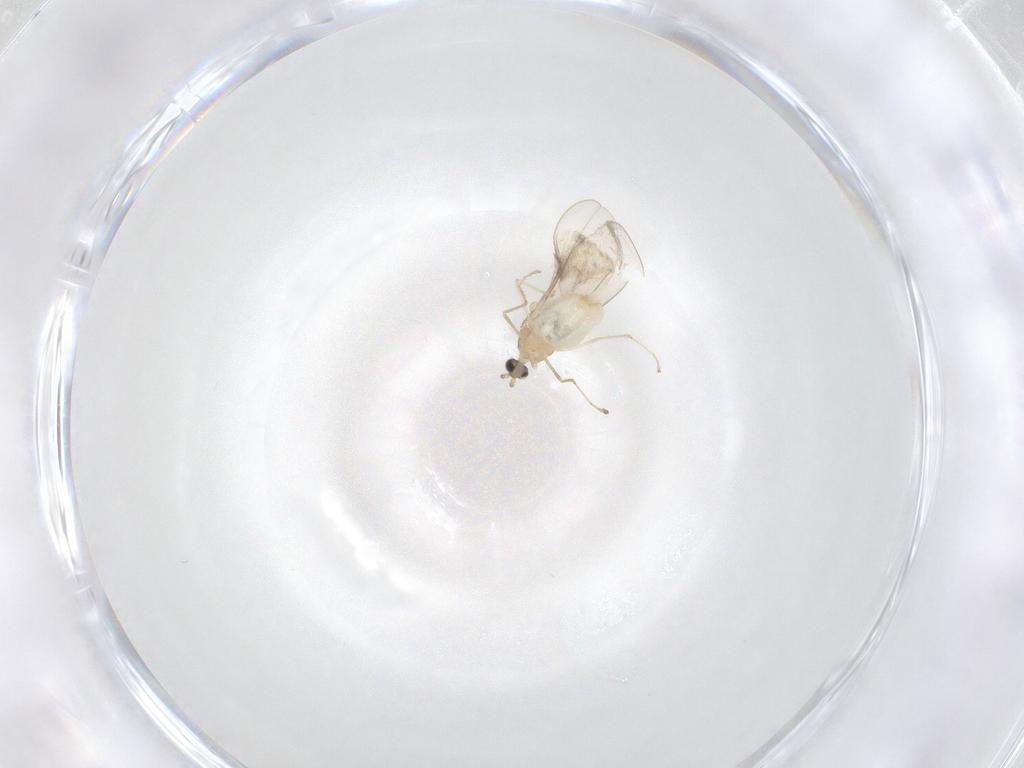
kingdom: Animalia
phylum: Arthropoda
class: Insecta
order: Diptera
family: Cecidomyiidae
